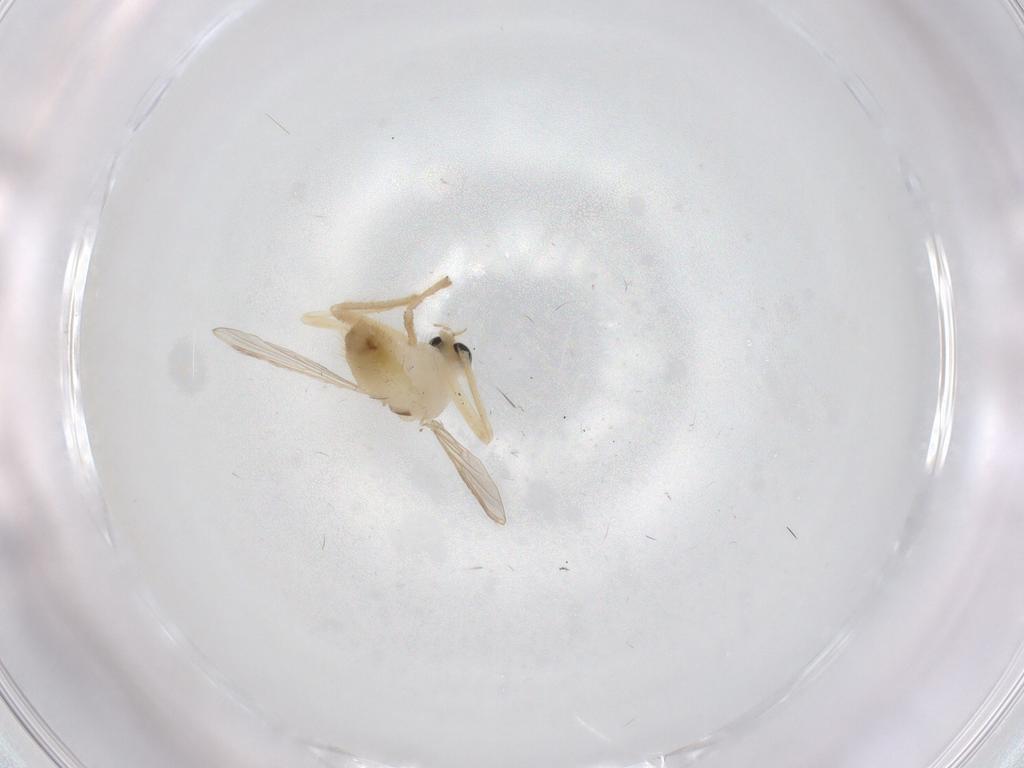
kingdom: Animalia
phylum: Arthropoda
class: Insecta
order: Diptera
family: Chironomidae
